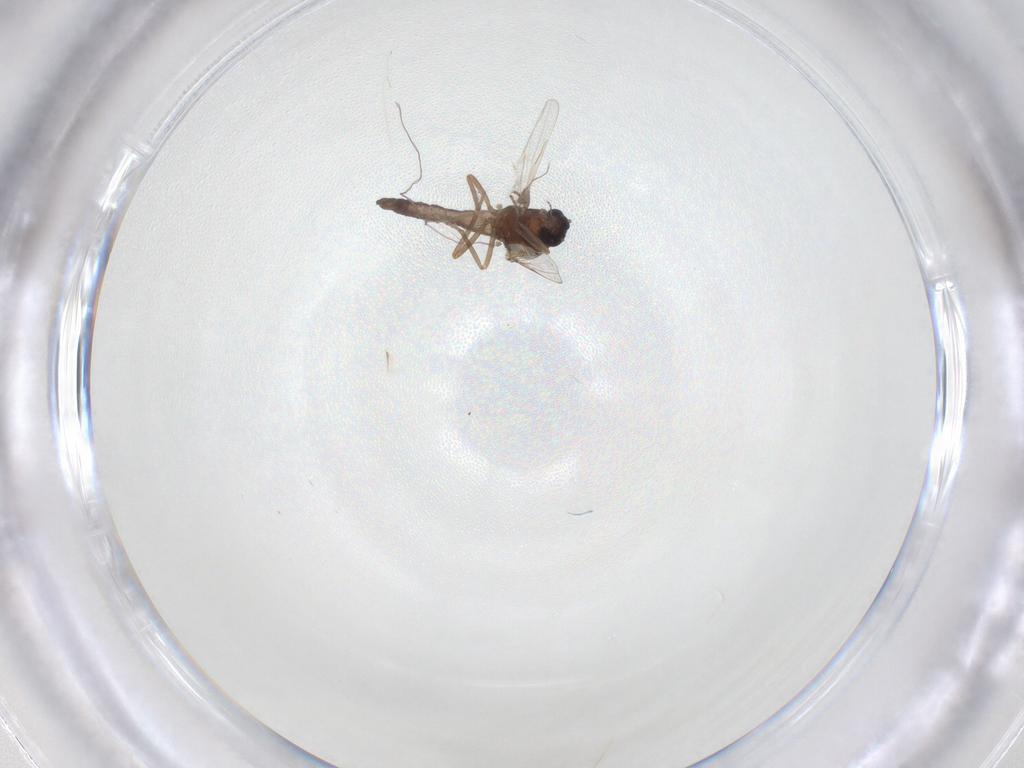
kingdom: Animalia
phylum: Arthropoda
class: Insecta
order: Diptera
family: Ceratopogonidae
